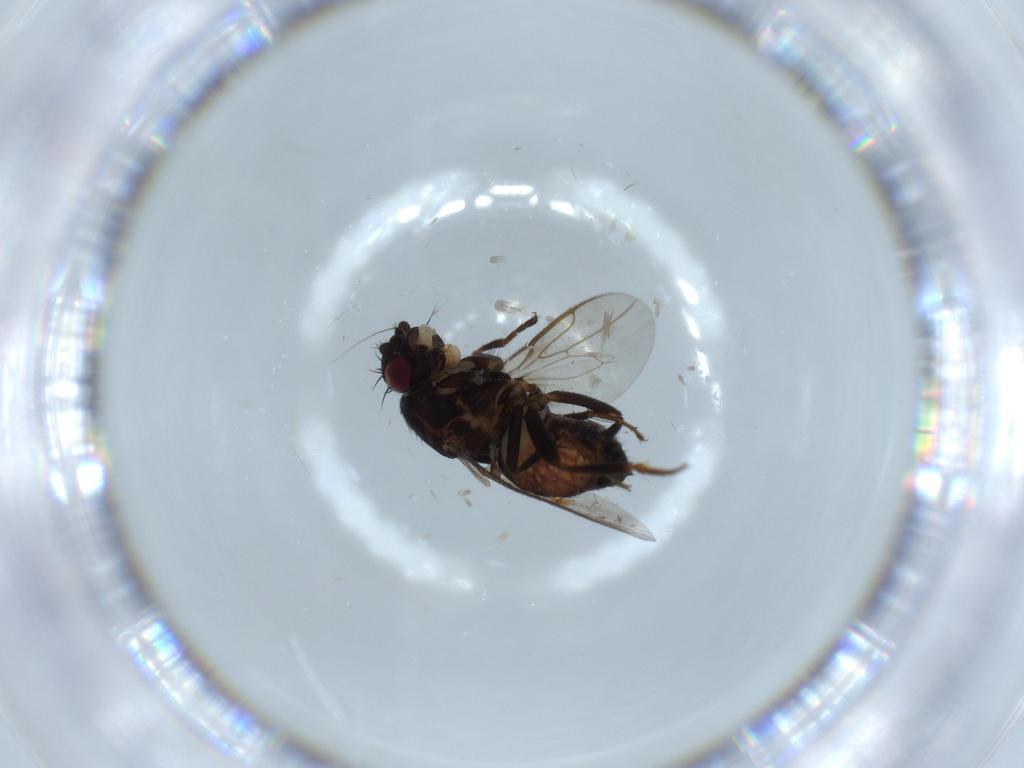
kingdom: Animalia
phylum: Arthropoda
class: Insecta
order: Diptera
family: Sphaeroceridae
